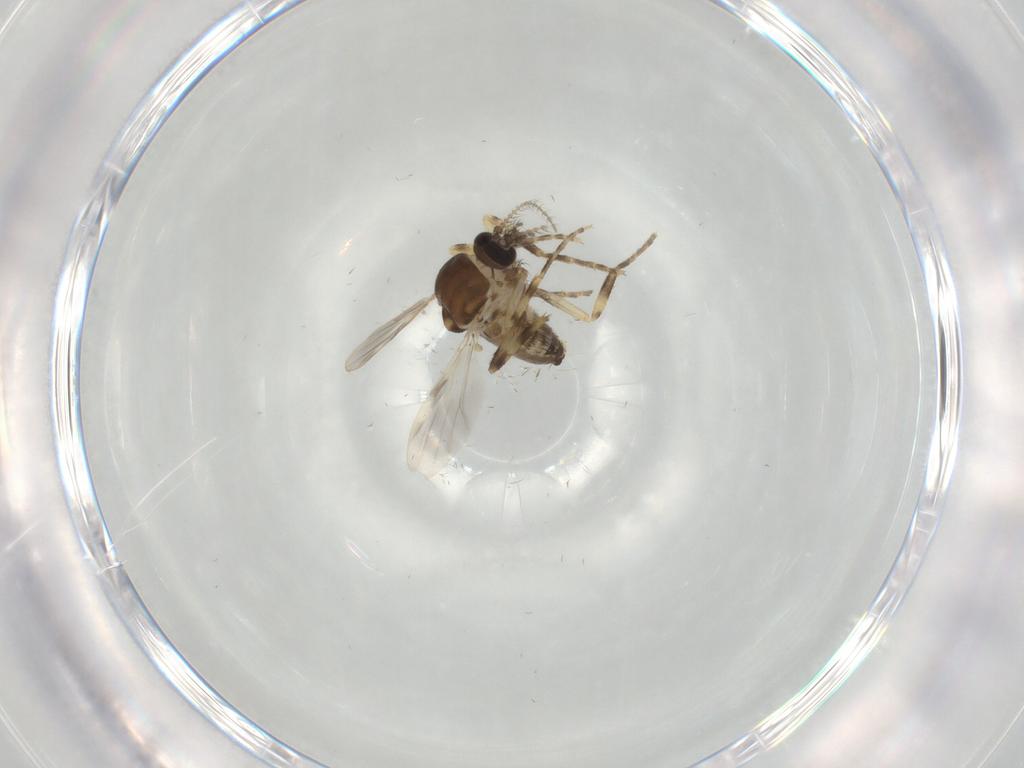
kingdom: Animalia
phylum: Arthropoda
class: Insecta
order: Diptera
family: Ceratopogonidae
